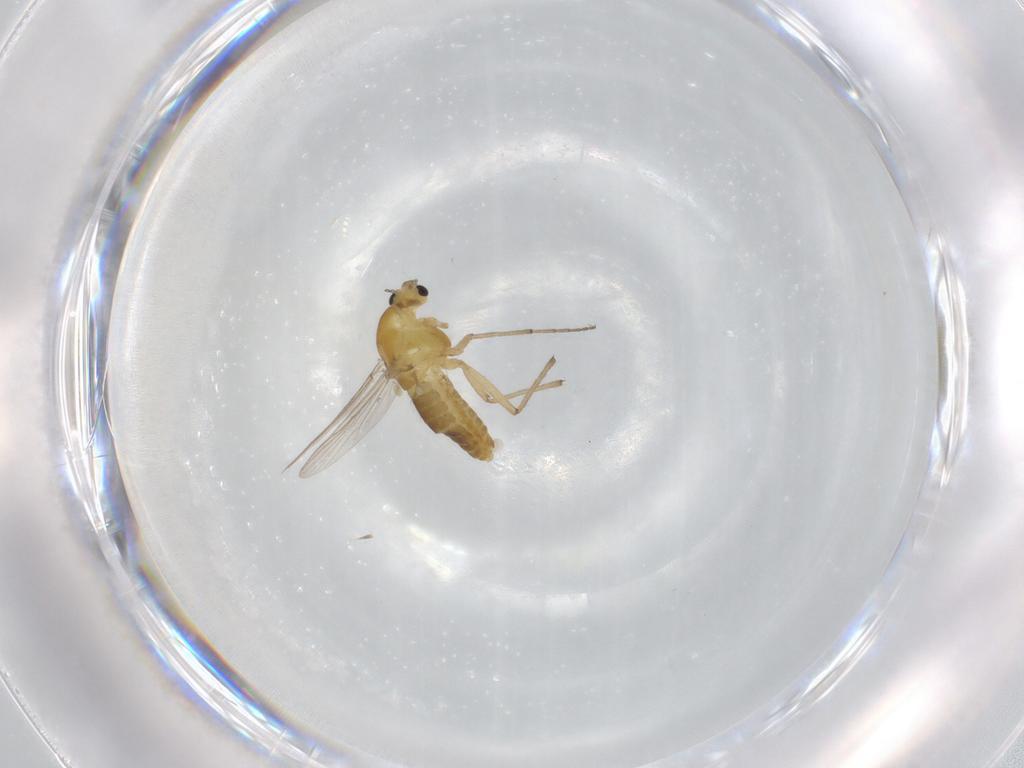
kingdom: Animalia
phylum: Arthropoda
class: Insecta
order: Diptera
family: Chironomidae
